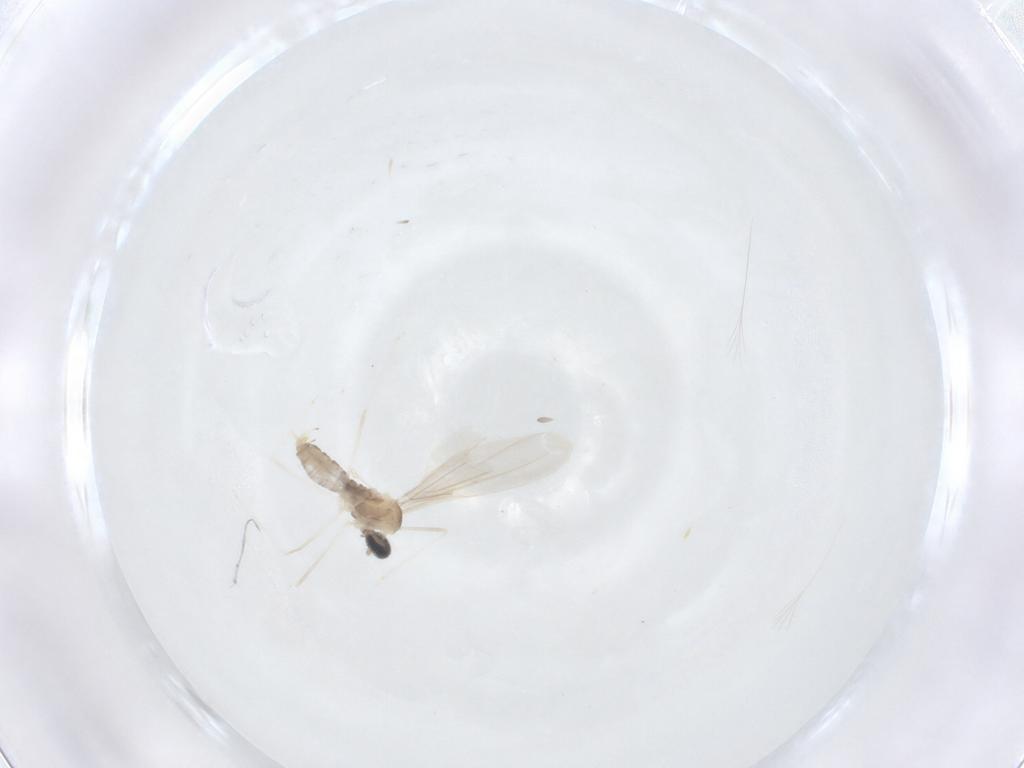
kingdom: Animalia
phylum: Arthropoda
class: Insecta
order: Diptera
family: Cecidomyiidae
